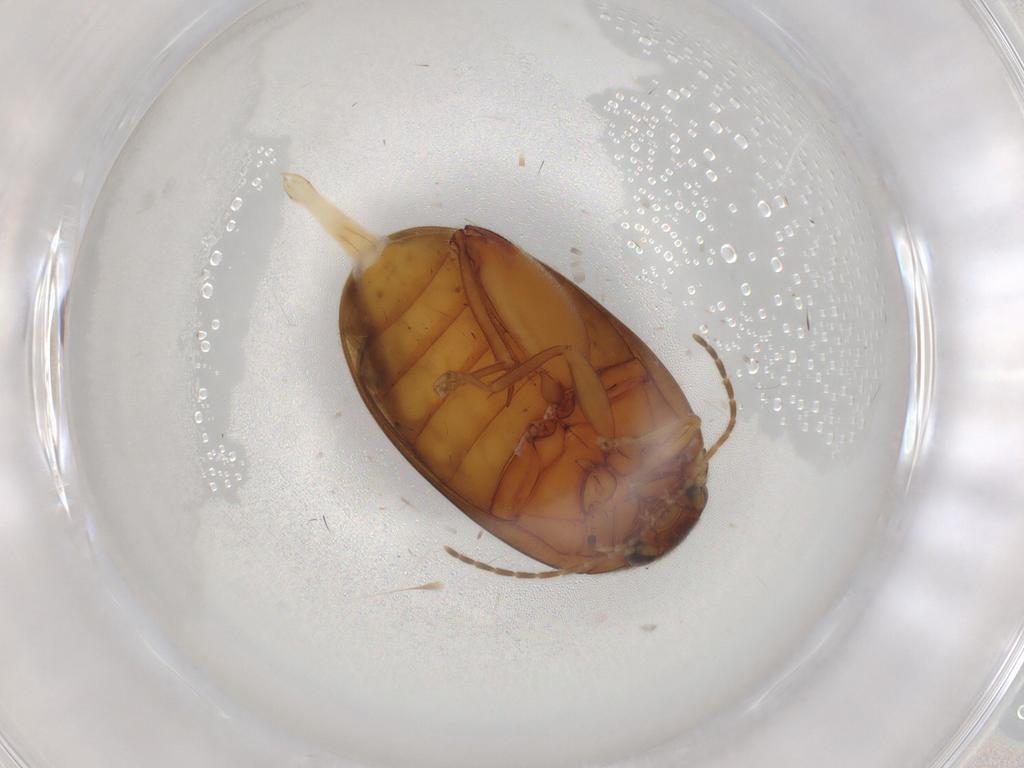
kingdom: Animalia
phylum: Arthropoda
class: Insecta
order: Coleoptera
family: Scirtidae
